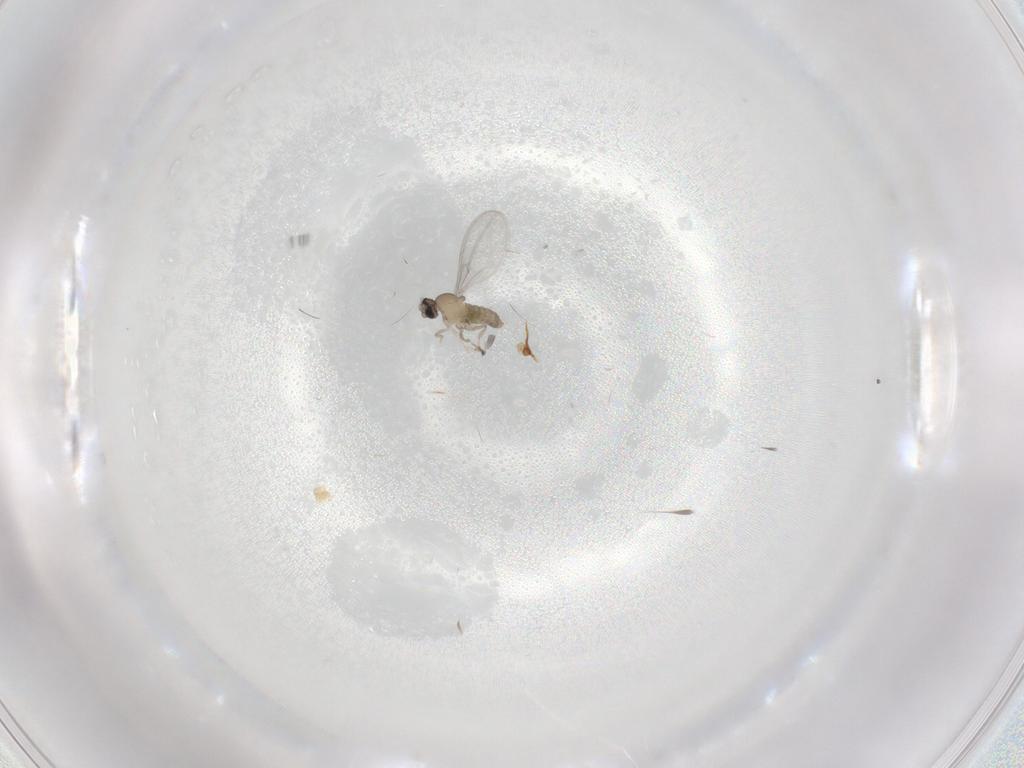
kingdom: Animalia
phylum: Arthropoda
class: Insecta
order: Diptera
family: Cecidomyiidae
